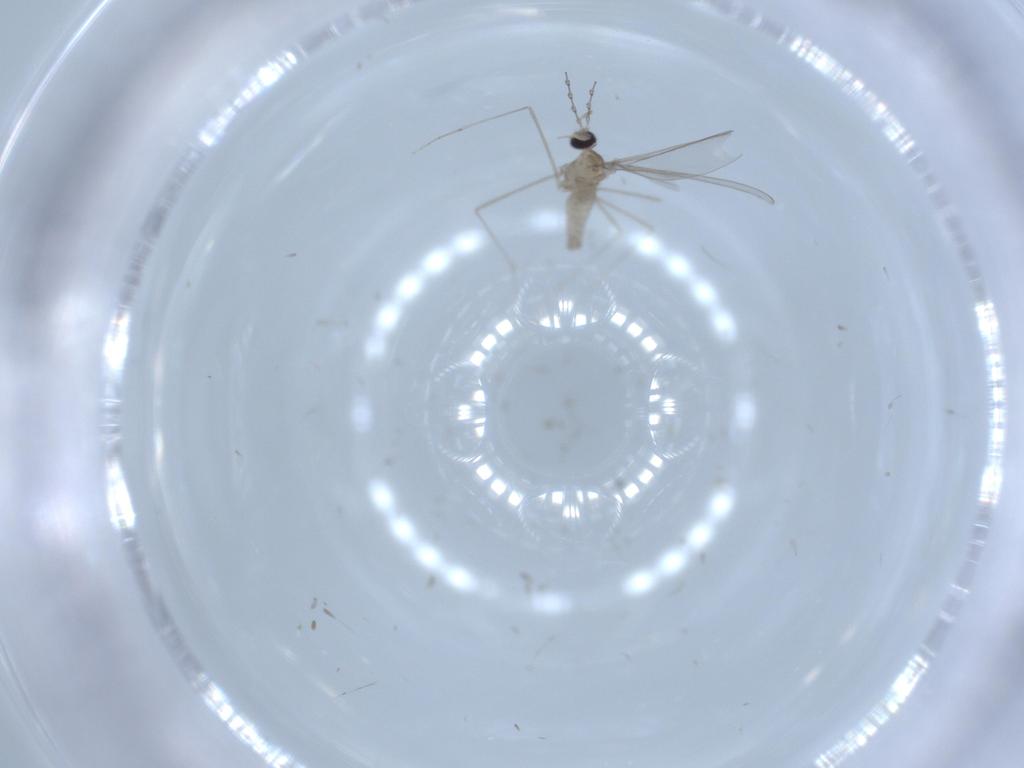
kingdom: Animalia
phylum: Arthropoda
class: Insecta
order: Diptera
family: Cecidomyiidae
